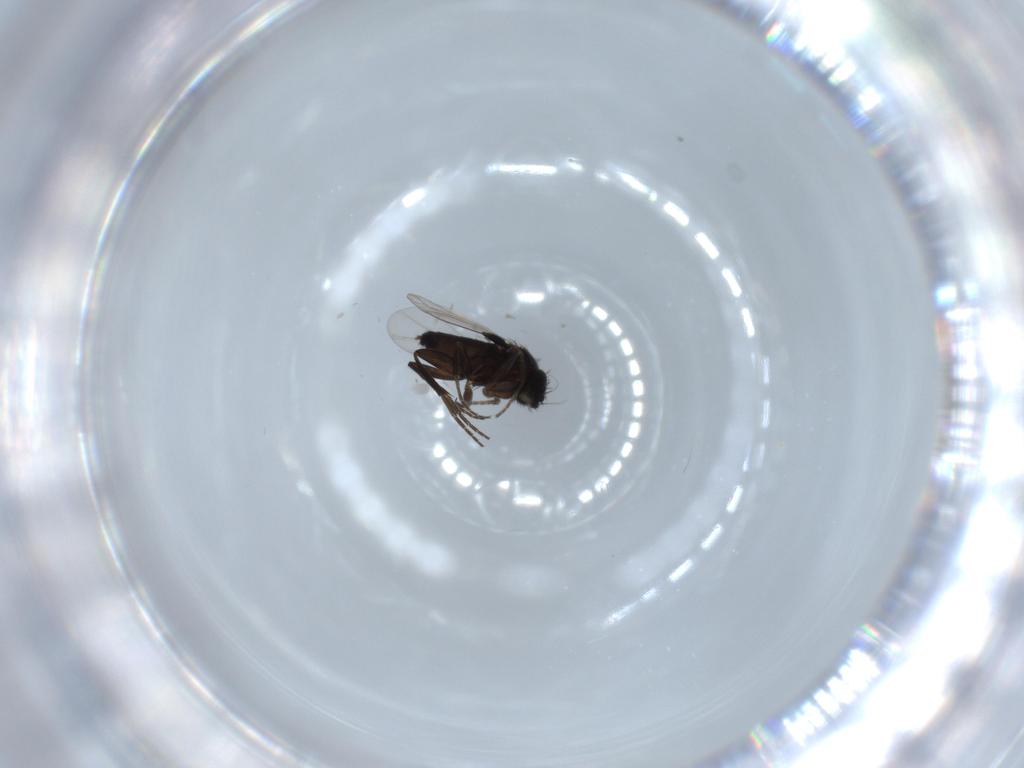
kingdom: Animalia
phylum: Arthropoda
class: Insecta
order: Diptera
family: Phoridae
